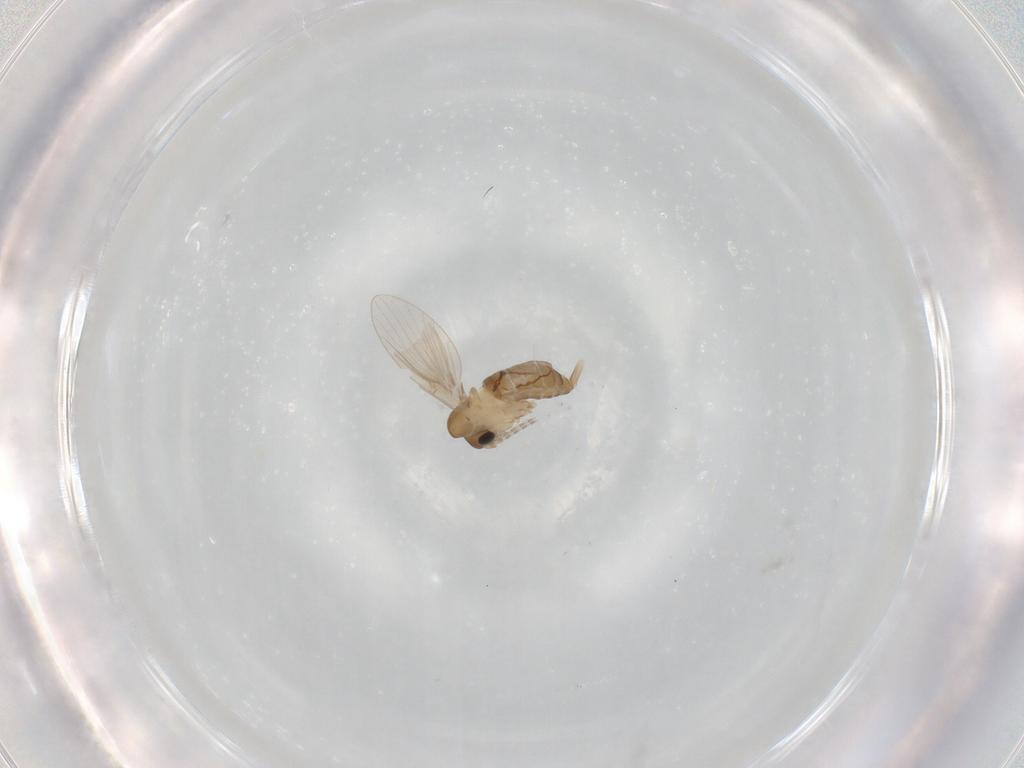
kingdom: Animalia
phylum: Arthropoda
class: Insecta
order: Diptera
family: Psychodidae
